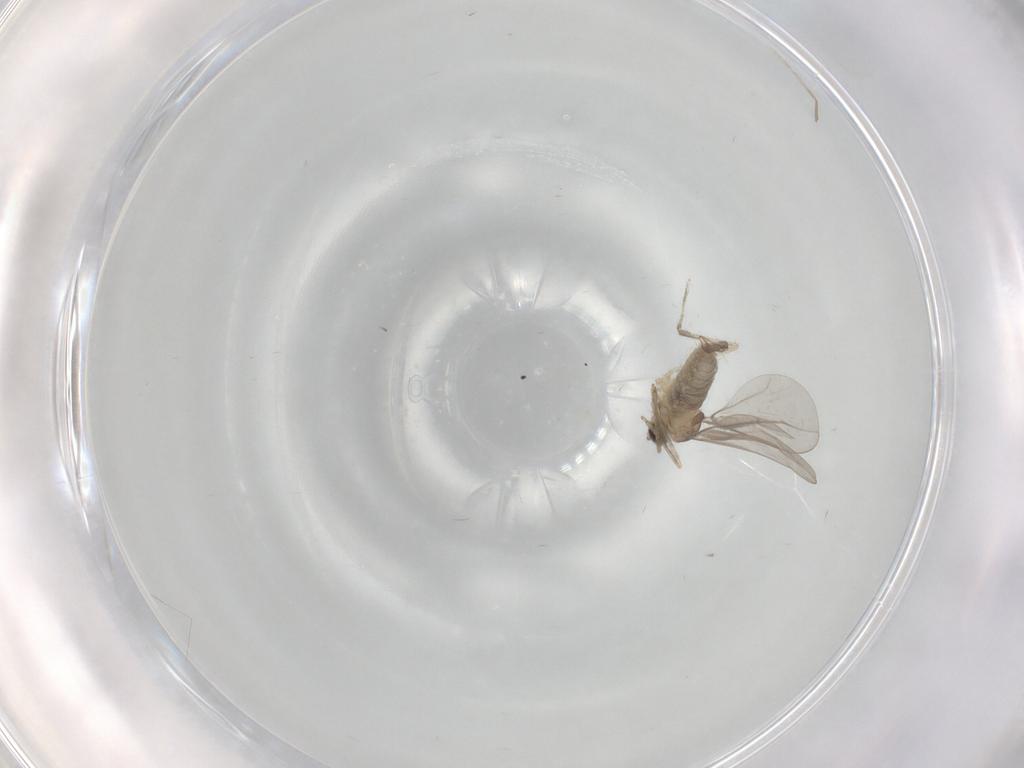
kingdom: Animalia
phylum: Arthropoda
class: Insecta
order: Diptera
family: Cecidomyiidae
